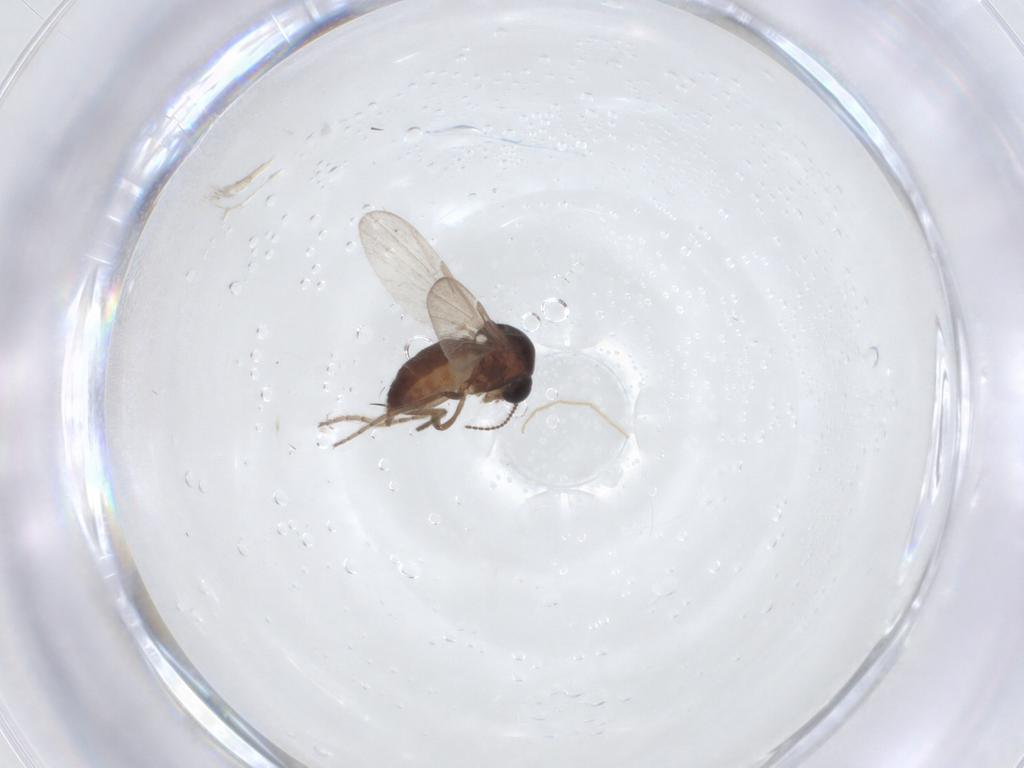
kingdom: Animalia
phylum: Arthropoda
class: Insecta
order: Diptera
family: Ceratopogonidae
